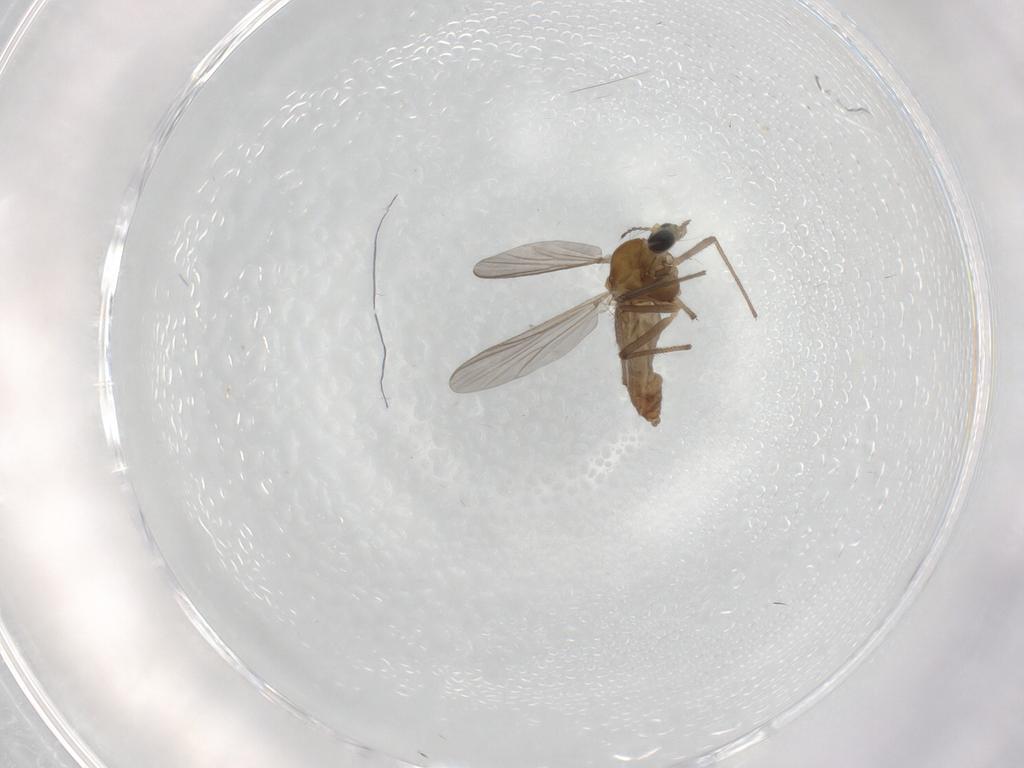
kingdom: Animalia
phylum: Arthropoda
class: Insecta
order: Diptera
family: Chironomidae
